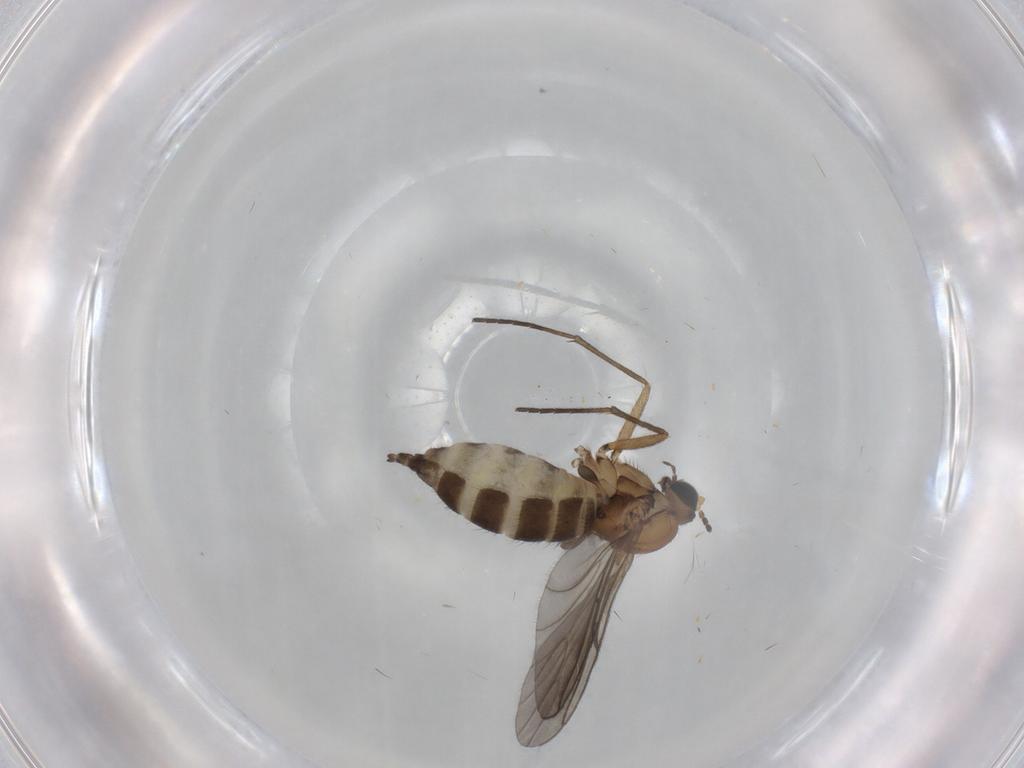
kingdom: Animalia
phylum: Arthropoda
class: Insecta
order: Diptera
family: Sciaridae
